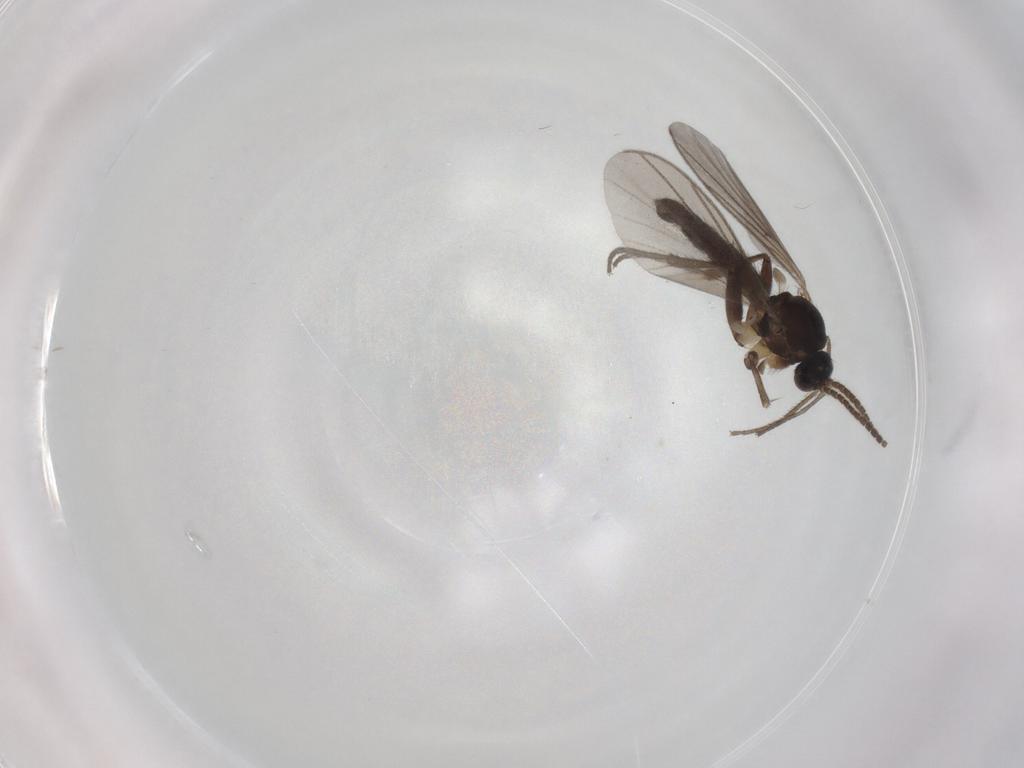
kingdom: Animalia
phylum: Arthropoda
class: Insecta
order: Diptera
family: Mycetophilidae
